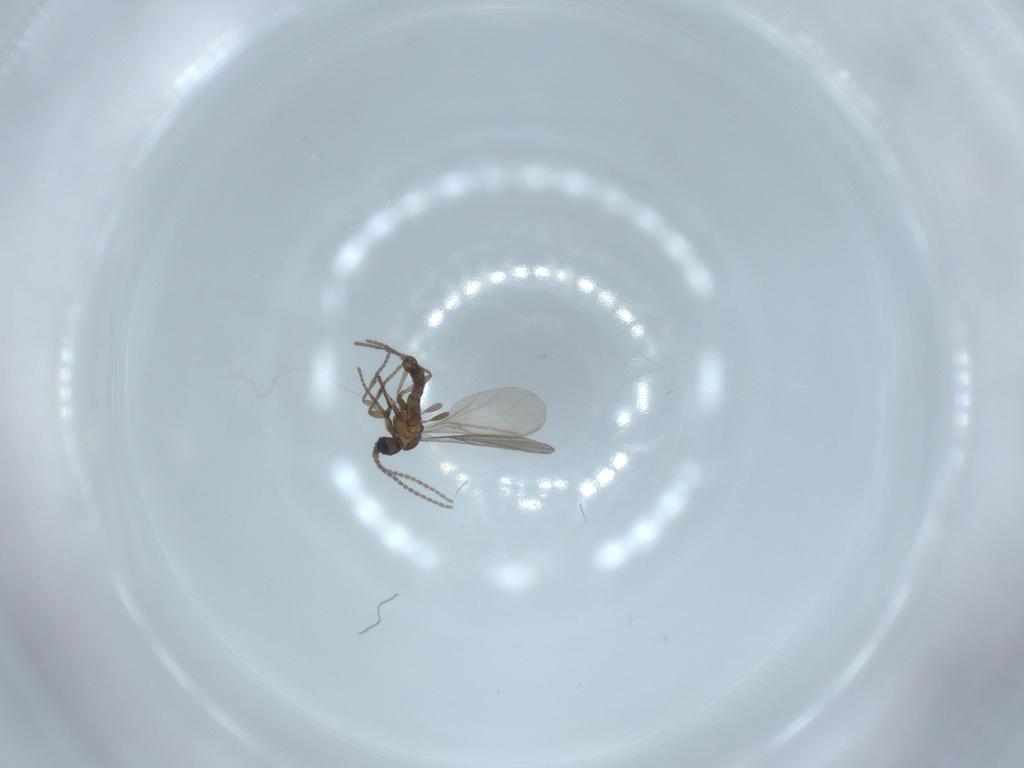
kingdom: Animalia
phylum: Arthropoda
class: Insecta
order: Diptera
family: Sciaridae
